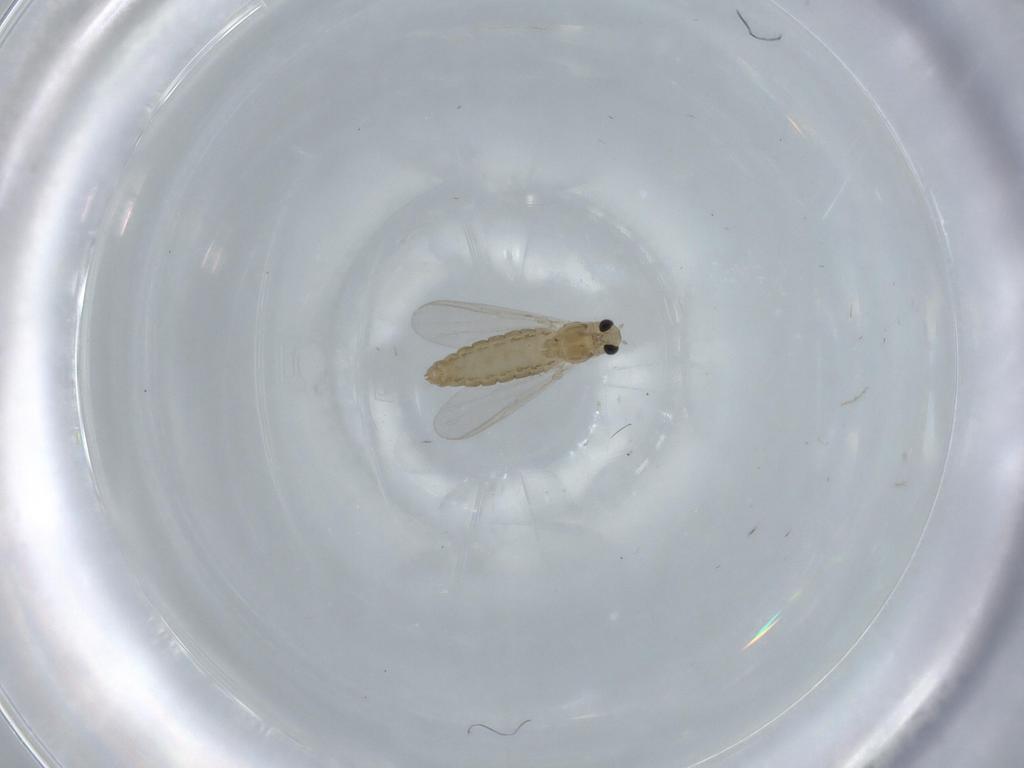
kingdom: Animalia
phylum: Arthropoda
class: Insecta
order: Diptera
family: Chironomidae
